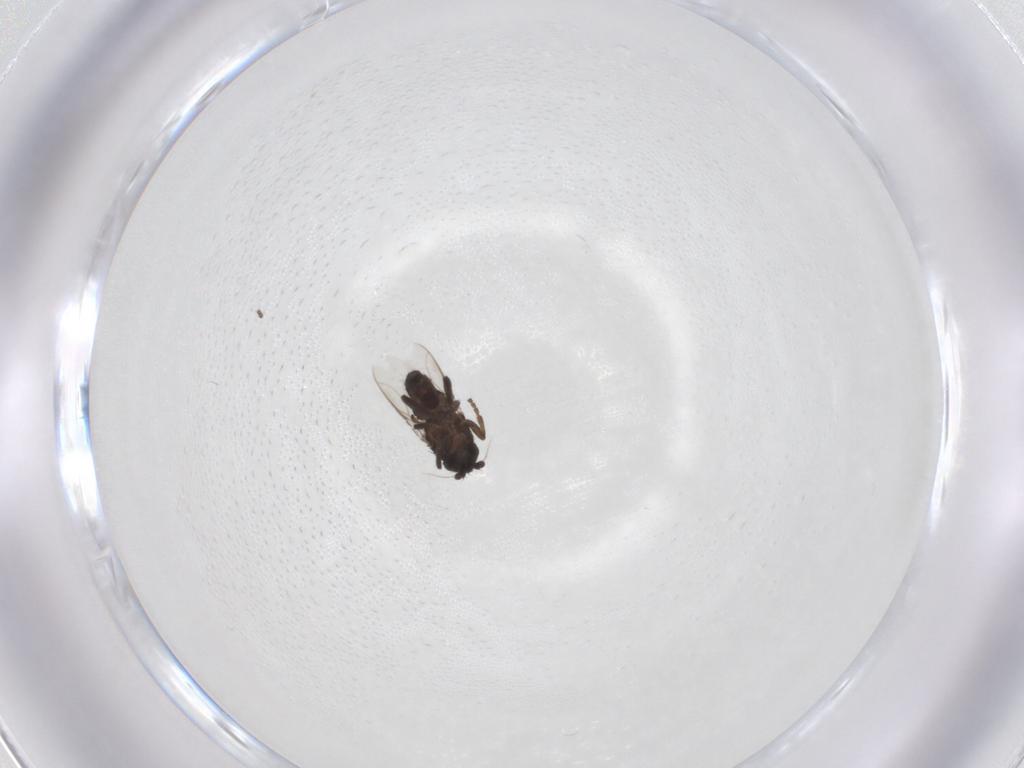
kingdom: Animalia
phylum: Arthropoda
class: Insecta
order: Diptera
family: Sphaeroceridae
